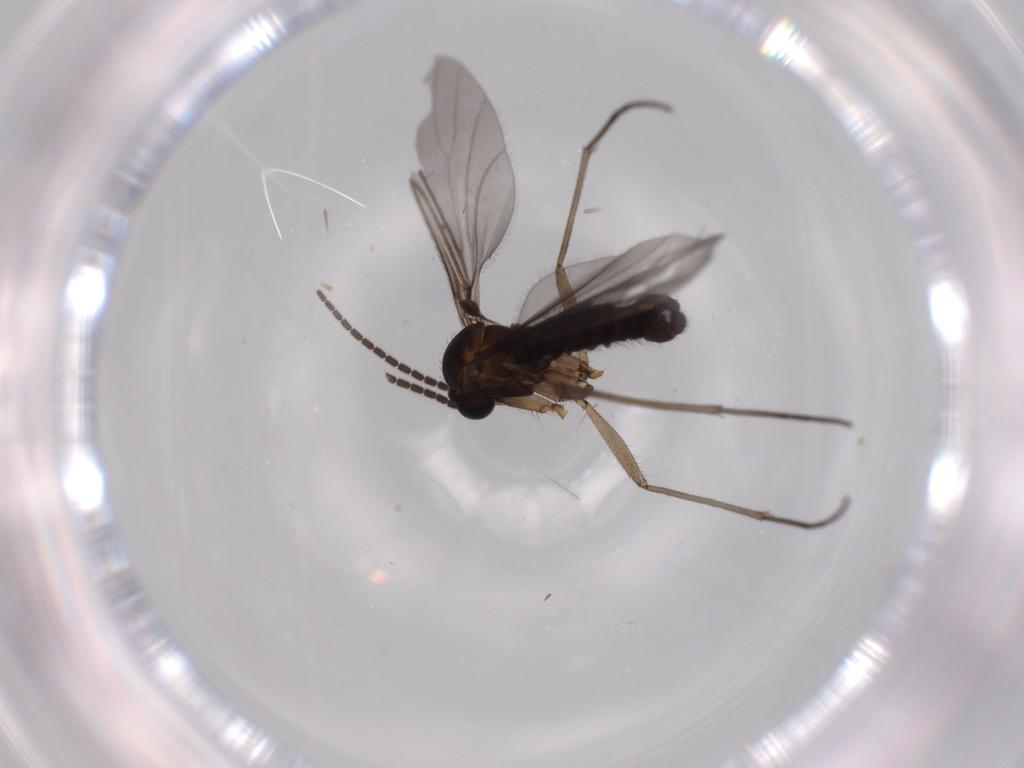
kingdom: Animalia
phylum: Arthropoda
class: Insecta
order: Diptera
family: Sciaridae
